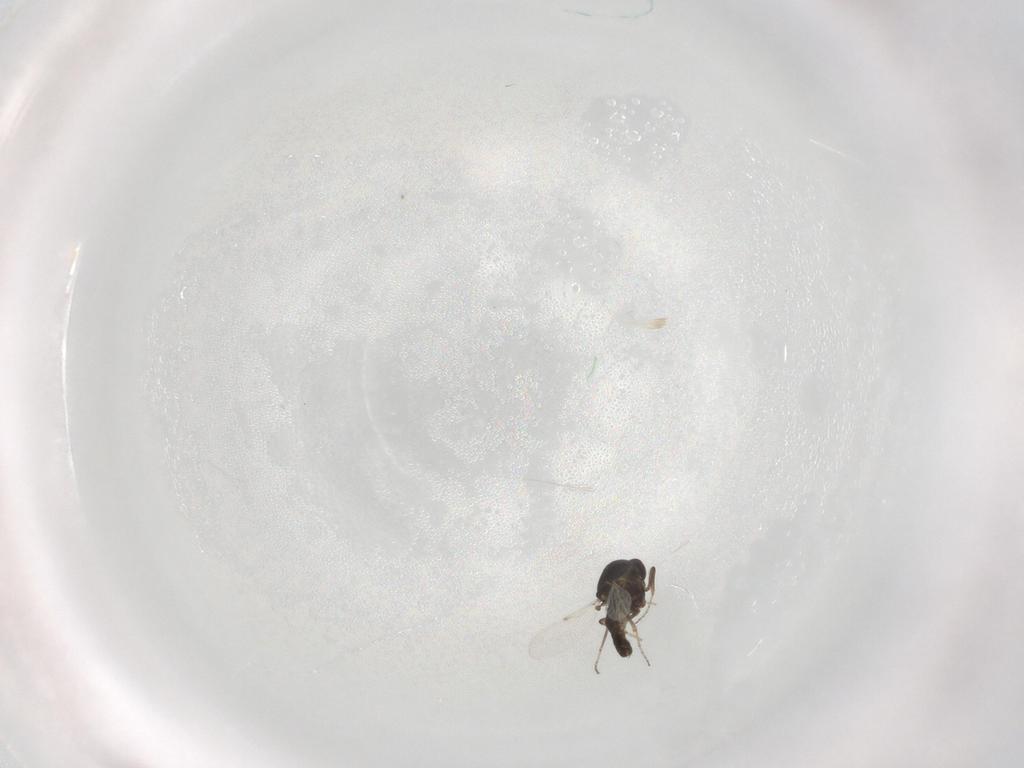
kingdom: Animalia
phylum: Arthropoda
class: Insecta
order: Diptera
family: Ceratopogonidae
